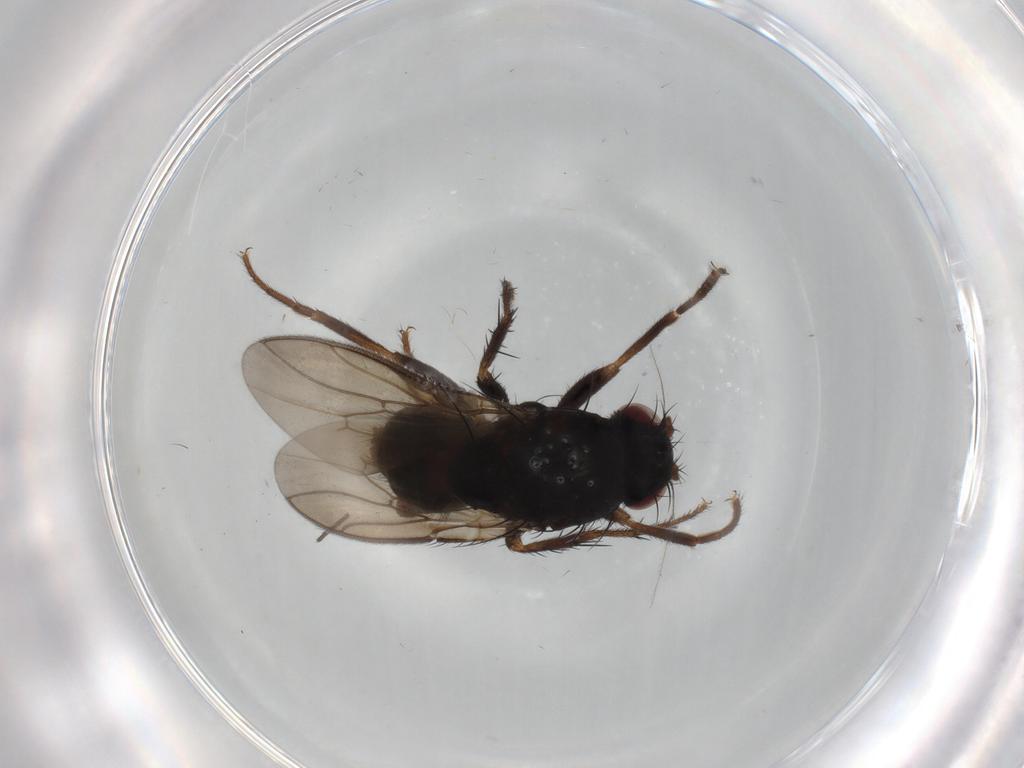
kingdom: Animalia
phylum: Arthropoda
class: Insecta
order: Diptera
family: Sphaeroceridae
